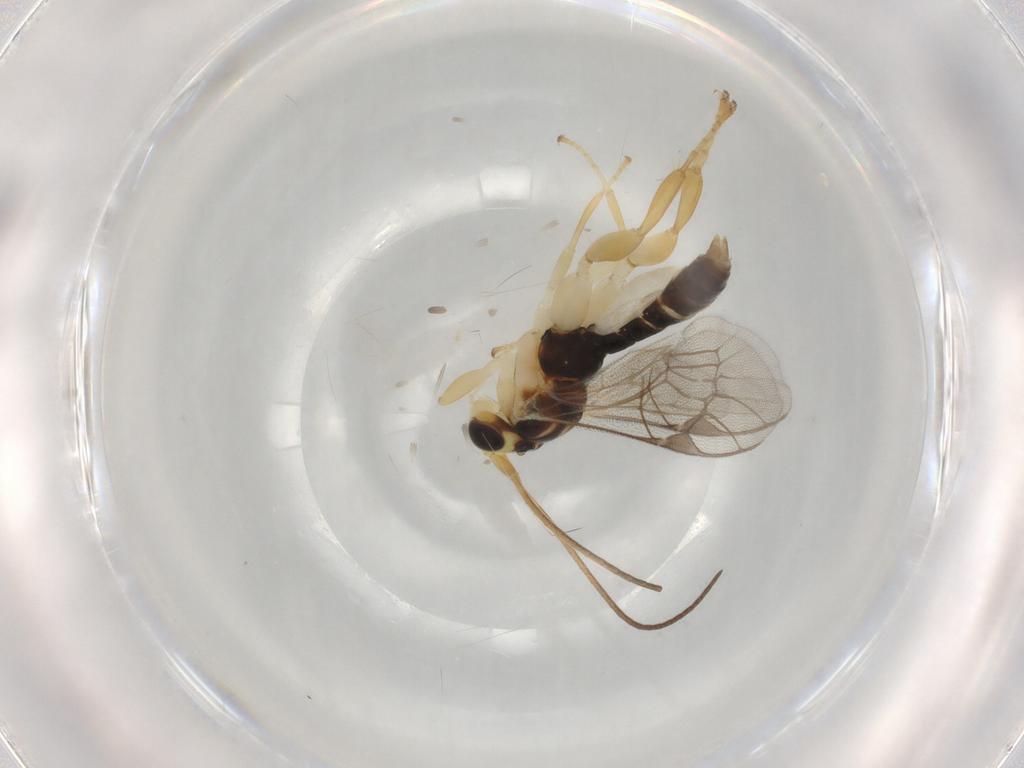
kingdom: Animalia
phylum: Arthropoda
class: Insecta
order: Hymenoptera
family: Ichneumonidae
